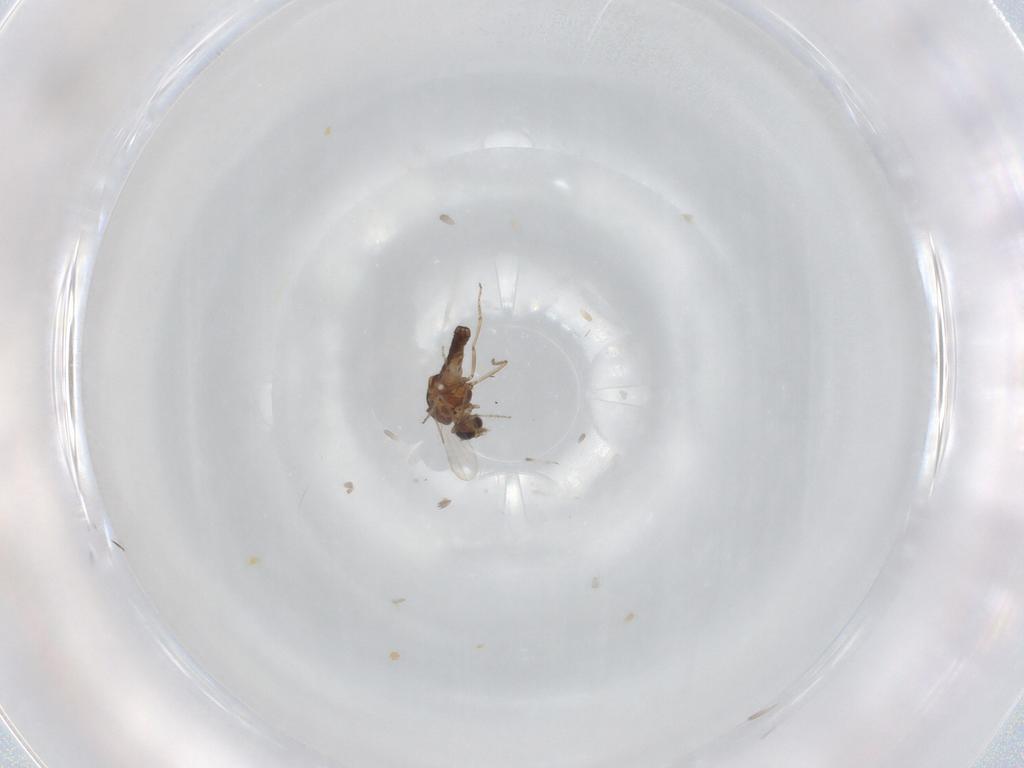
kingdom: Animalia
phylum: Arthropoda
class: Insecta
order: Diptera
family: Ceratopogonidae
